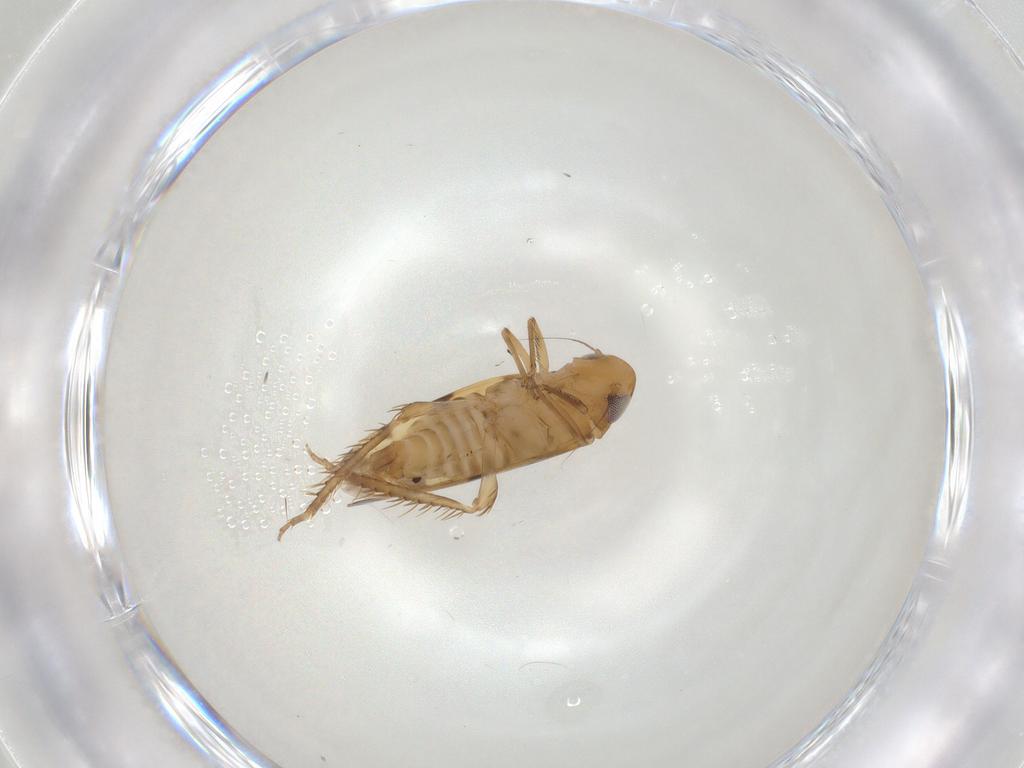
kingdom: Animalia
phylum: Arthropoda
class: Insecta
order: Hemiptera
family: Cicadellidae
